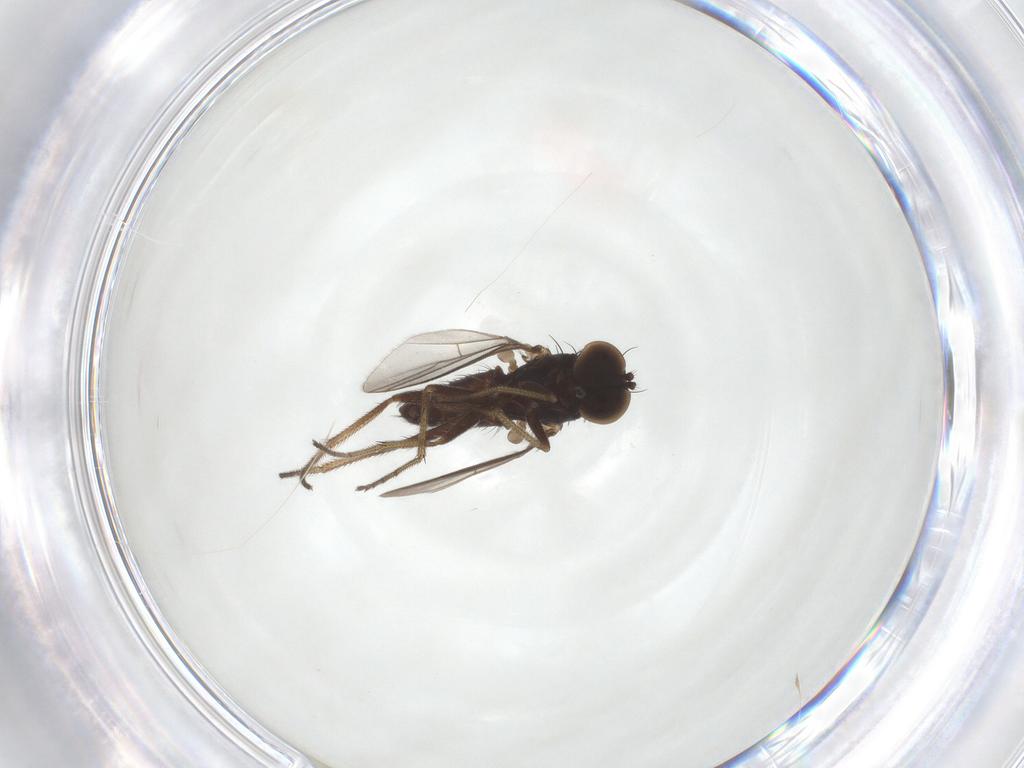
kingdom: Animalia
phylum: Arthropoda
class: Insecta
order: Diptera
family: Dolichopodidae
